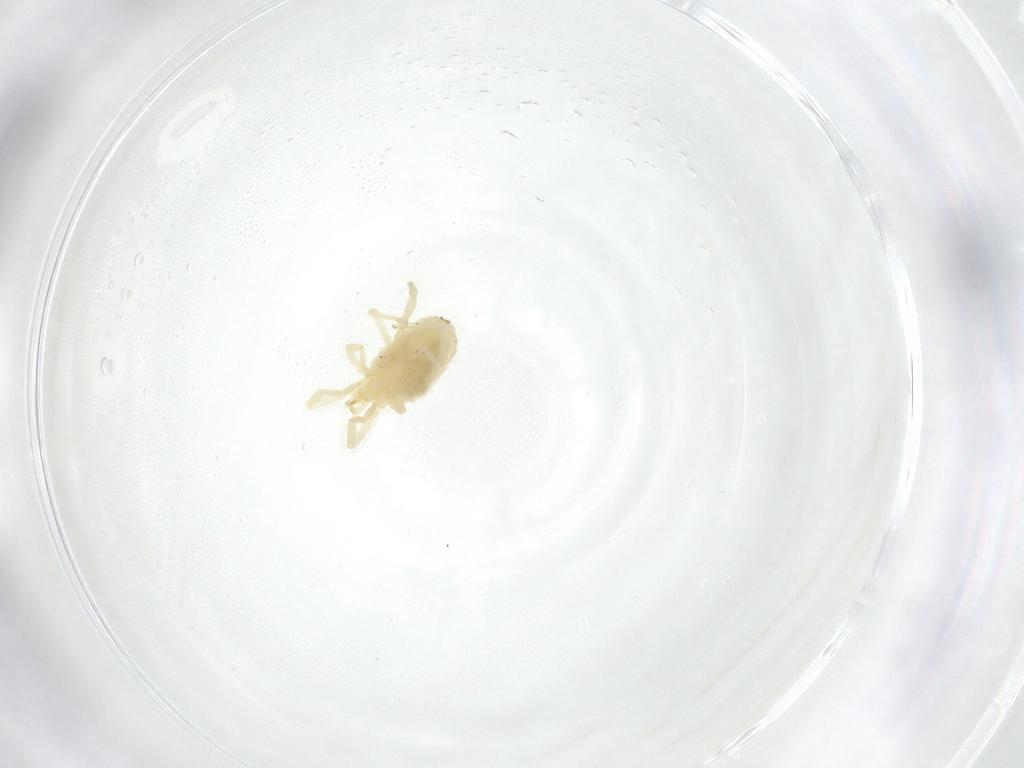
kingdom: Animalia
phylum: Arthropoda
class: Arachnida
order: Trombidiformes
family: Erythraeidae
